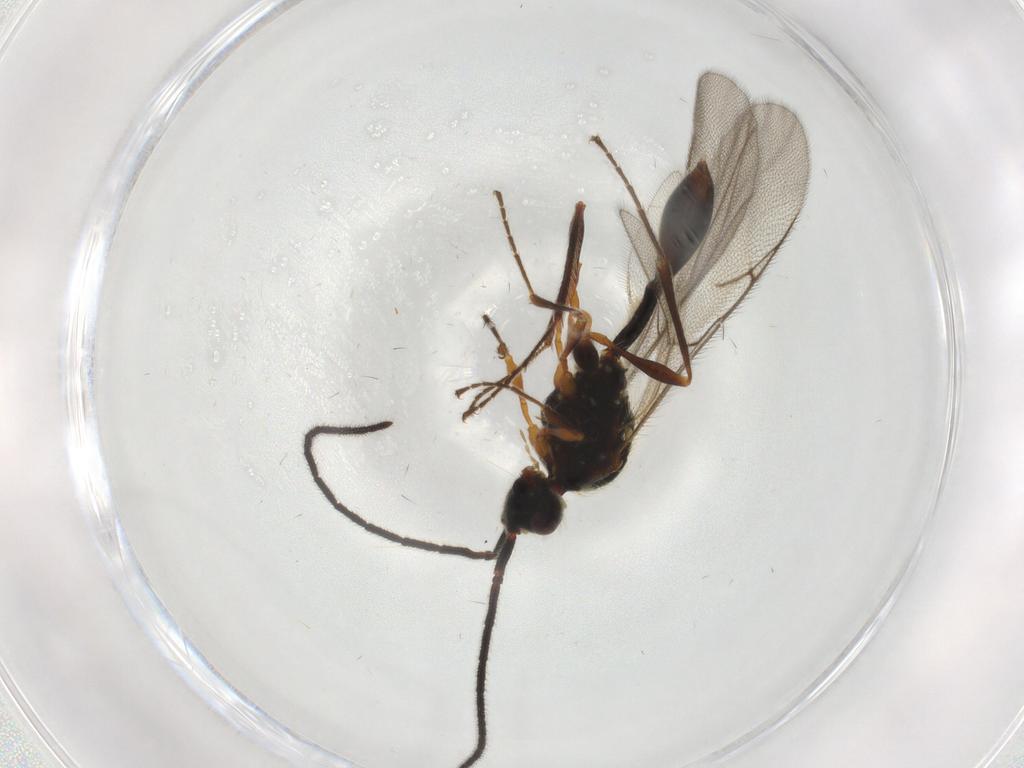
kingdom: Animalia
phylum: Arthropoda
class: Insecta
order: Hymenoptera
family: Diapriidae
